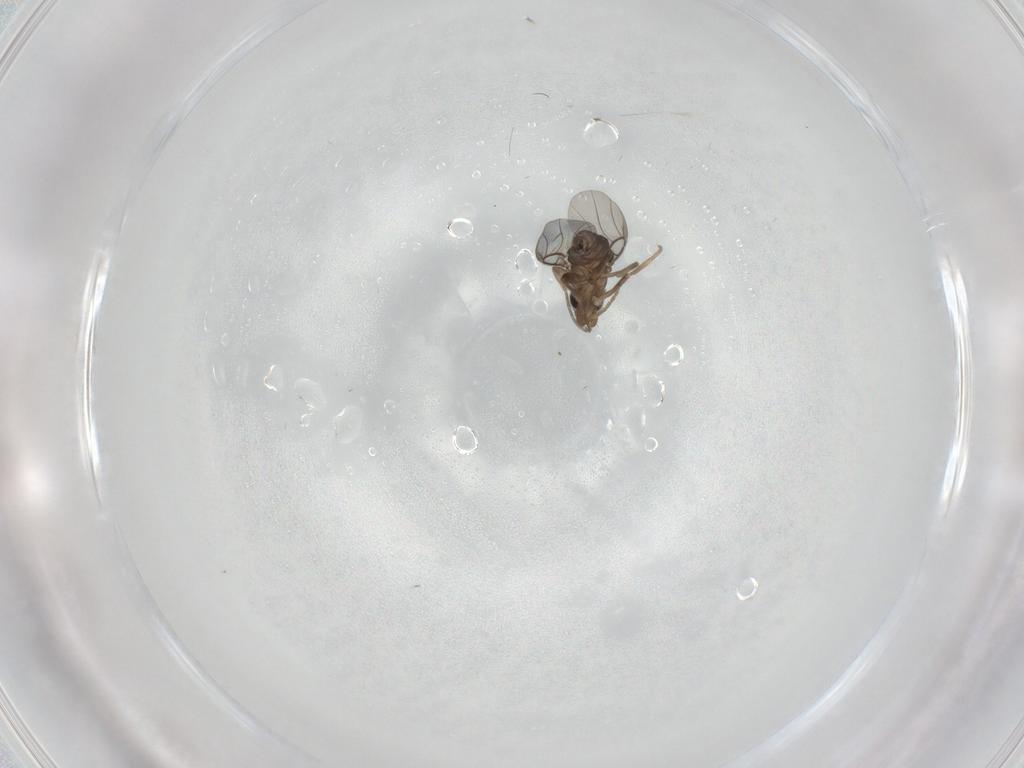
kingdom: Animalia
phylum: Arthropoda
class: Insecta
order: Diptera
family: Phoridae
